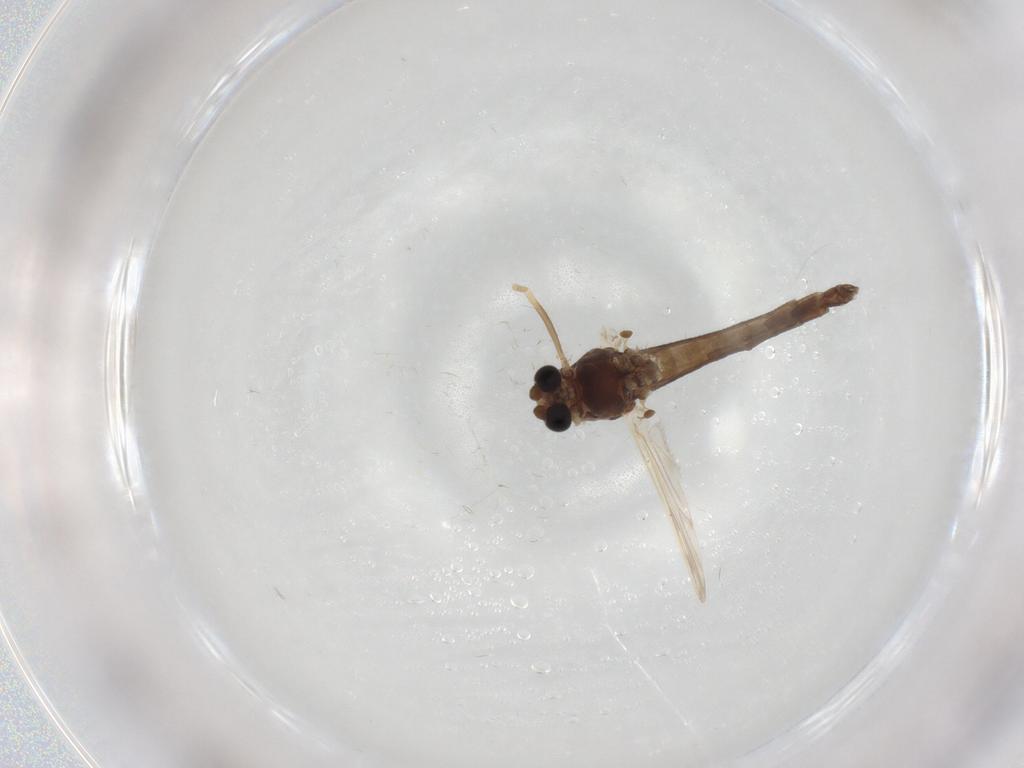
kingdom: Animalia
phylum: Arthropoda
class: Insecta
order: Diptera
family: Chironomidae
